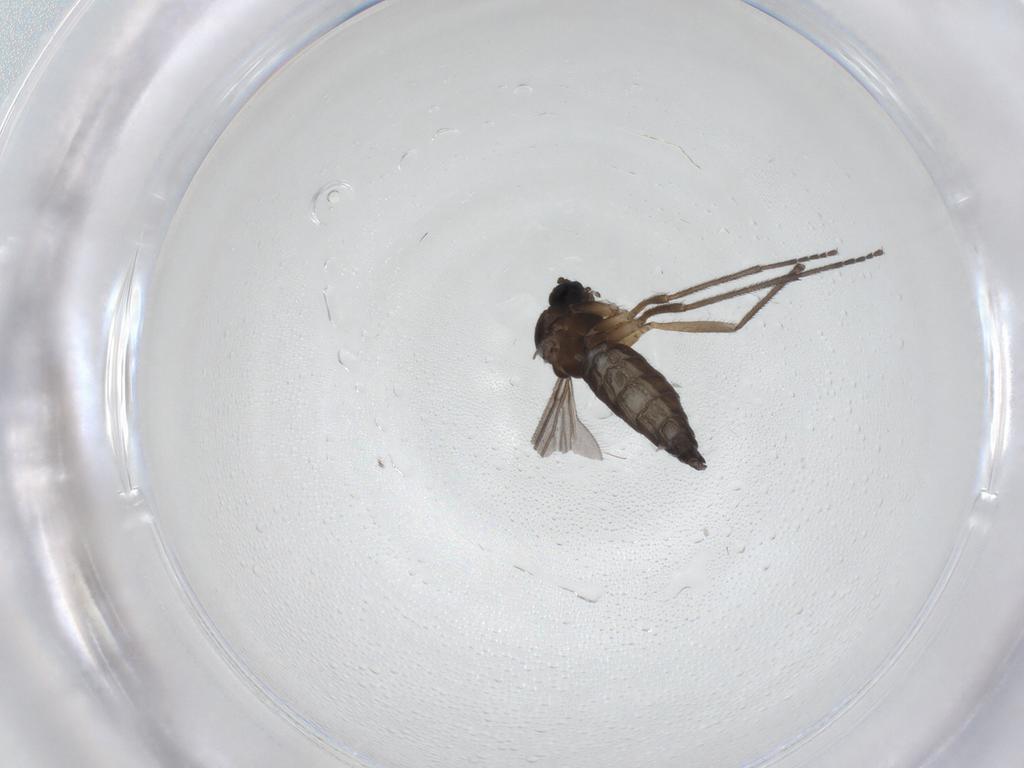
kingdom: Animalia
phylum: Arthropoda
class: Insecta
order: Diptera
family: Sciaridae
